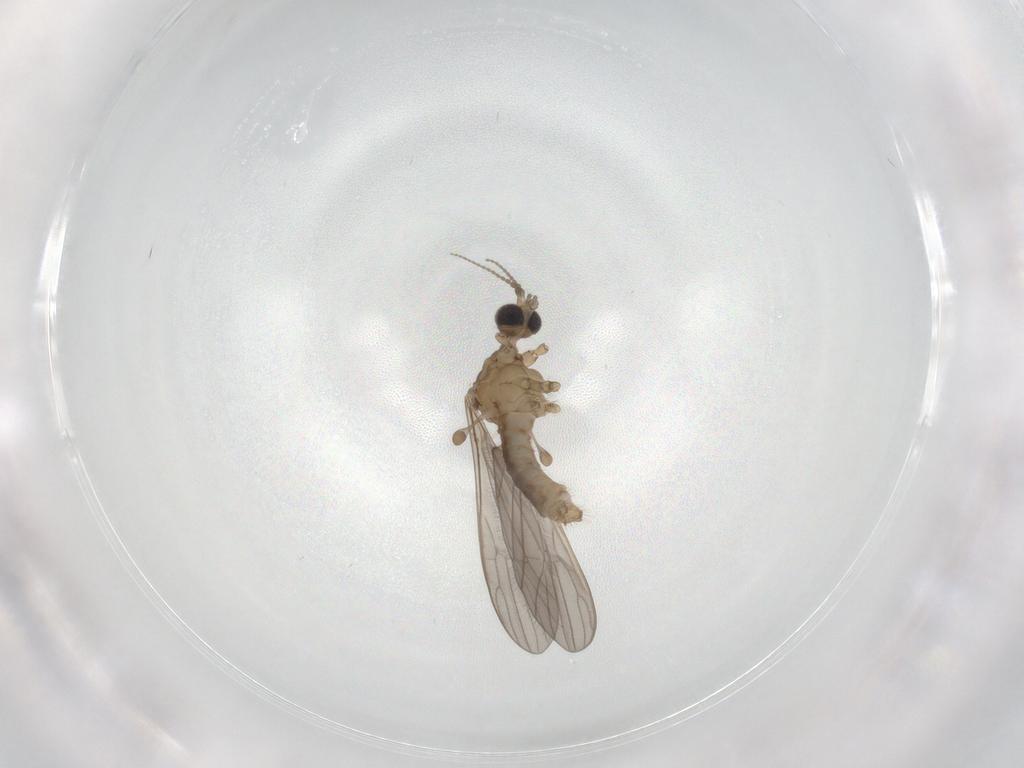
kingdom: Animalia
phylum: Arthropoda
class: Insecta
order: Diptera
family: Limoniidae
